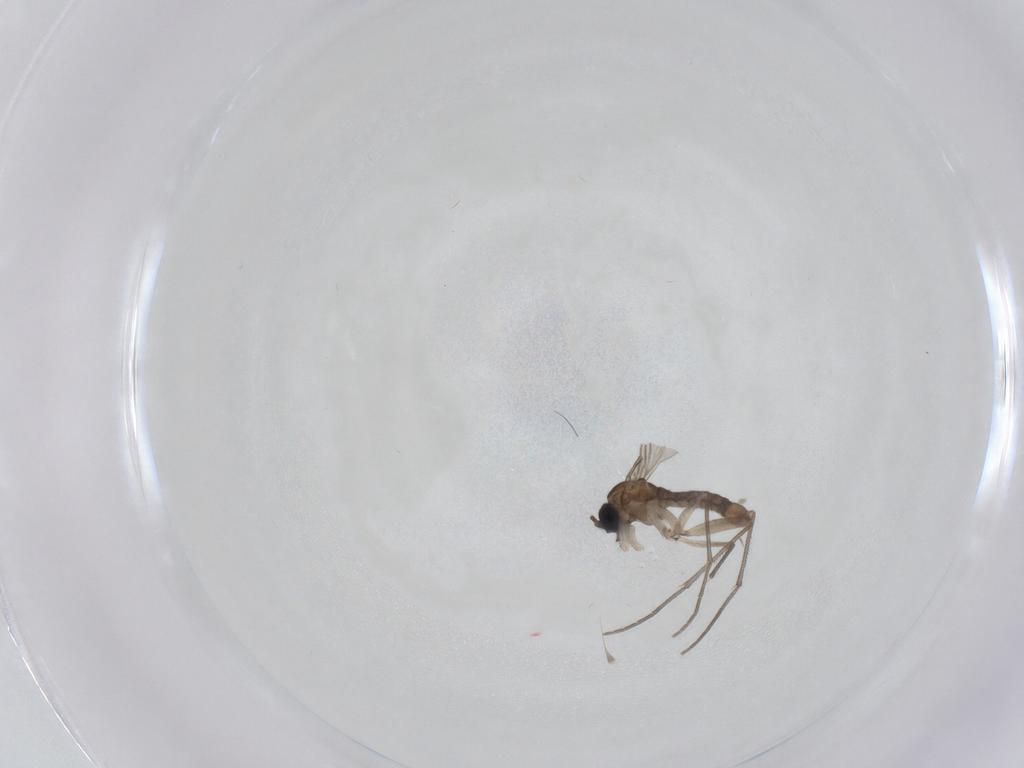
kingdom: Animalia
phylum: Arthropoda
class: Insecta
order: Diptera
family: Sciaridae
